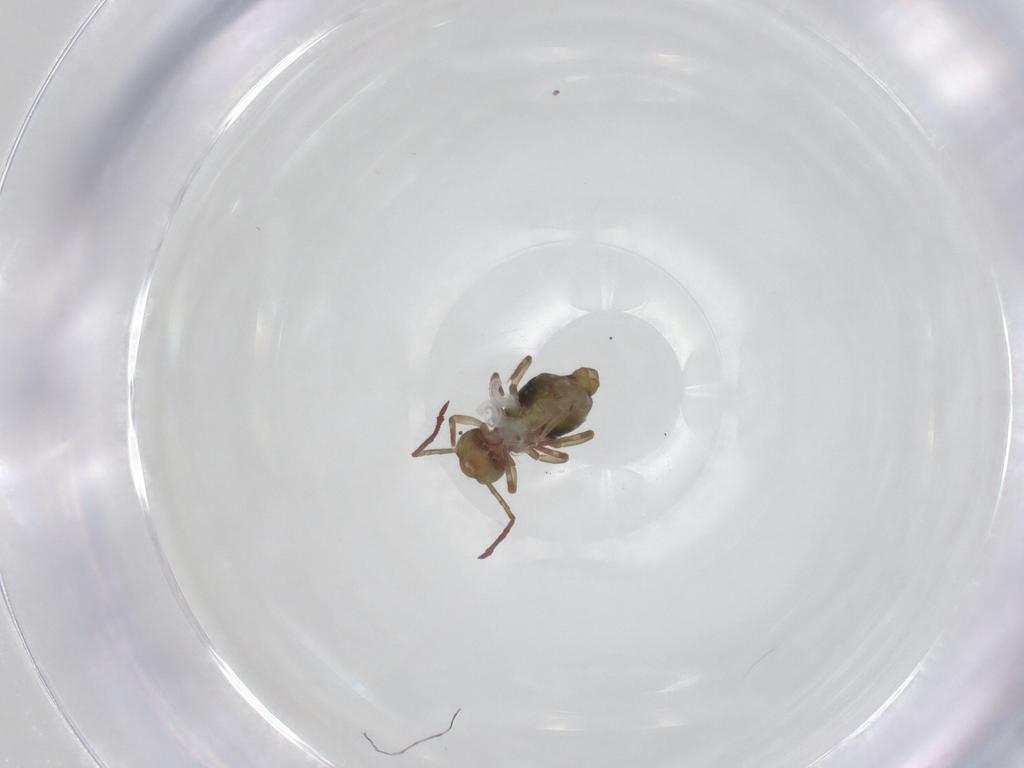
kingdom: Animalia
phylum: Arthropoda
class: Collembola
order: Symphypleona
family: Dicyrtomidae
